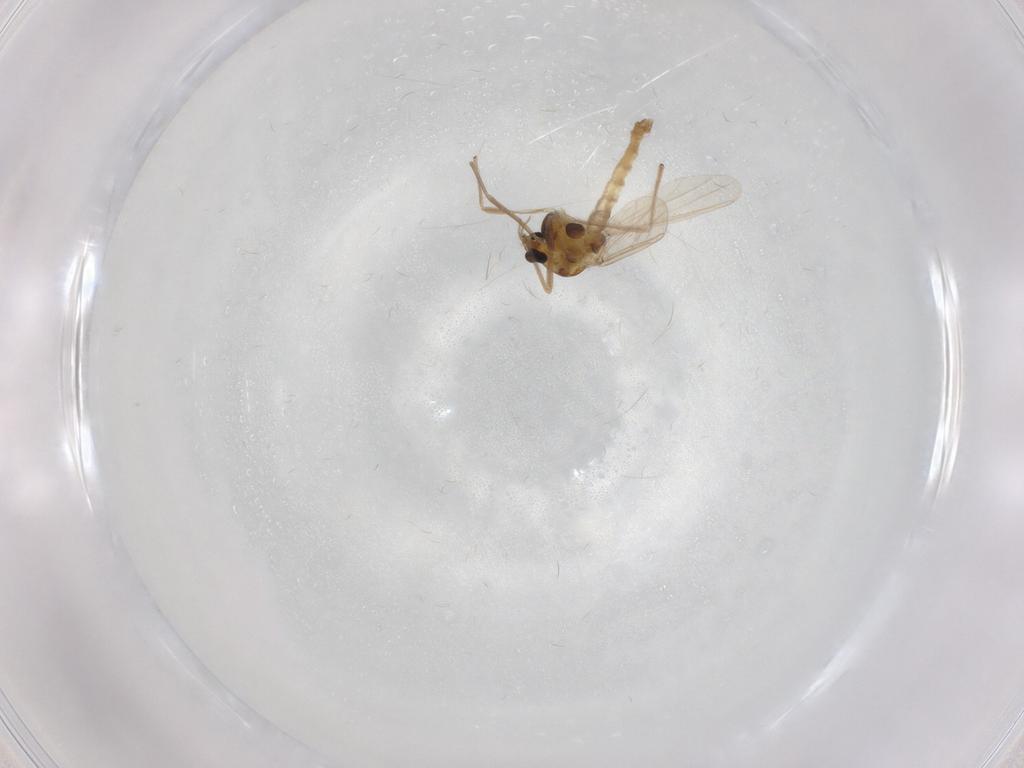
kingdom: Animalia
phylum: Arthropoda
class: Insecta
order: Diptera
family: Chironomidae
